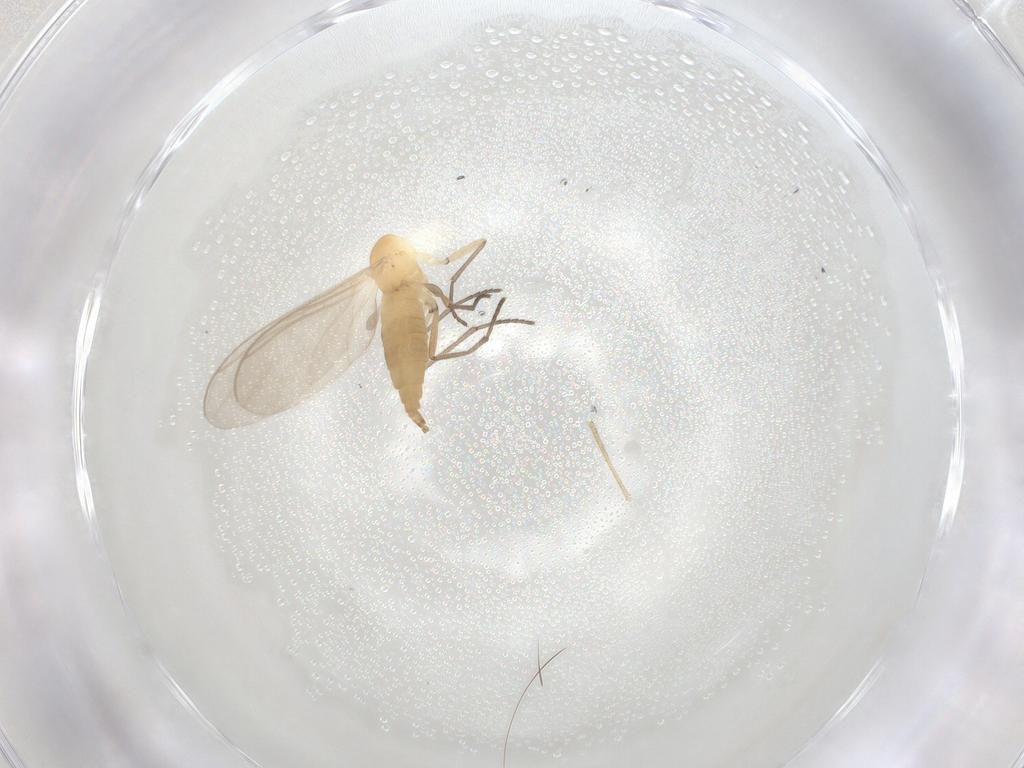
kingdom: Animalia
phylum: Arthropoda
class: Insecta
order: Diptera
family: Sciaridae
